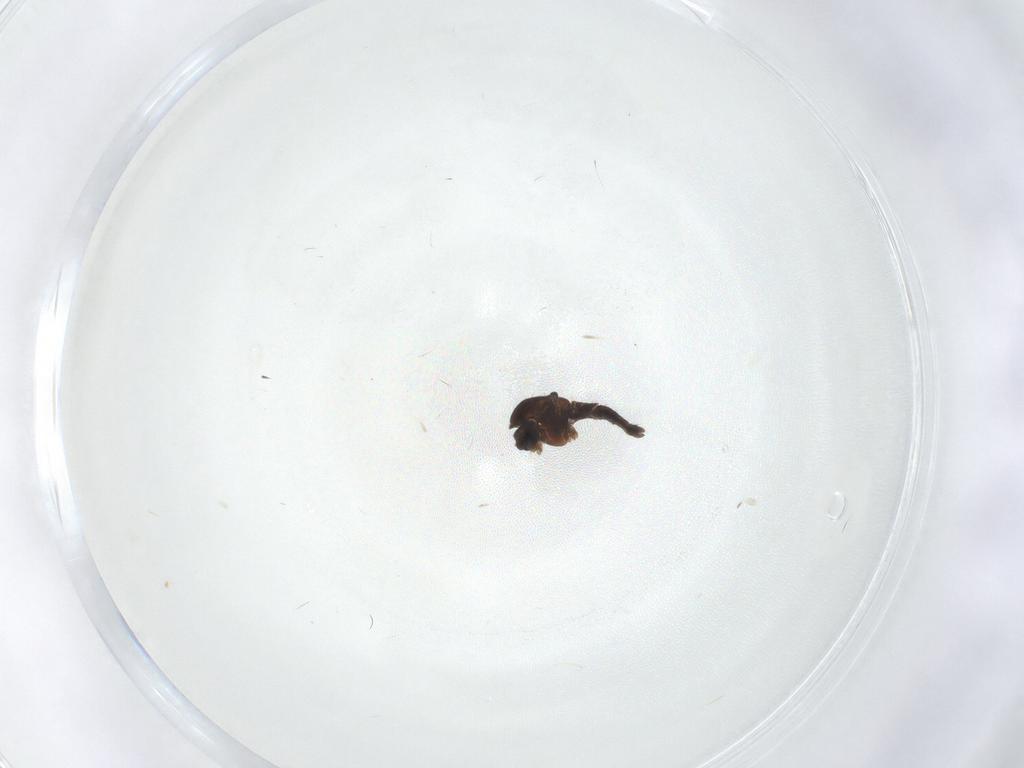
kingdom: Animalia
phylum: Arthropoda
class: Insecta
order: Diptera
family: Chironomidae
